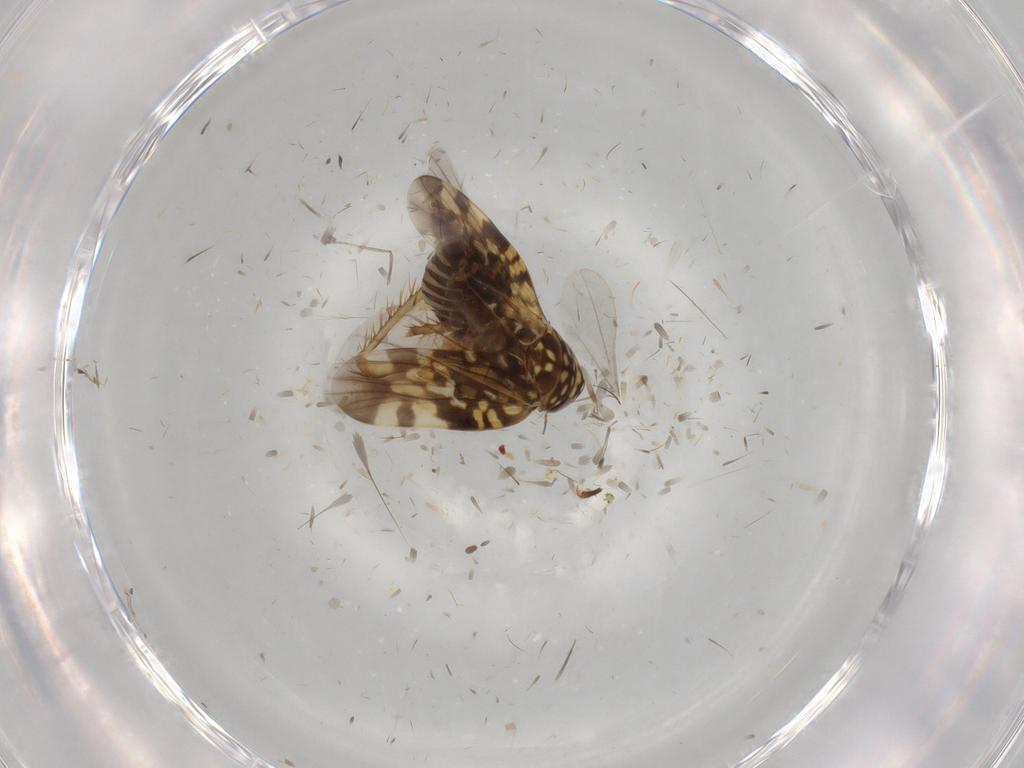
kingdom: Animalia
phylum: Arthropoda
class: Insecta
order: Hemiptera
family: Cicadellidae
